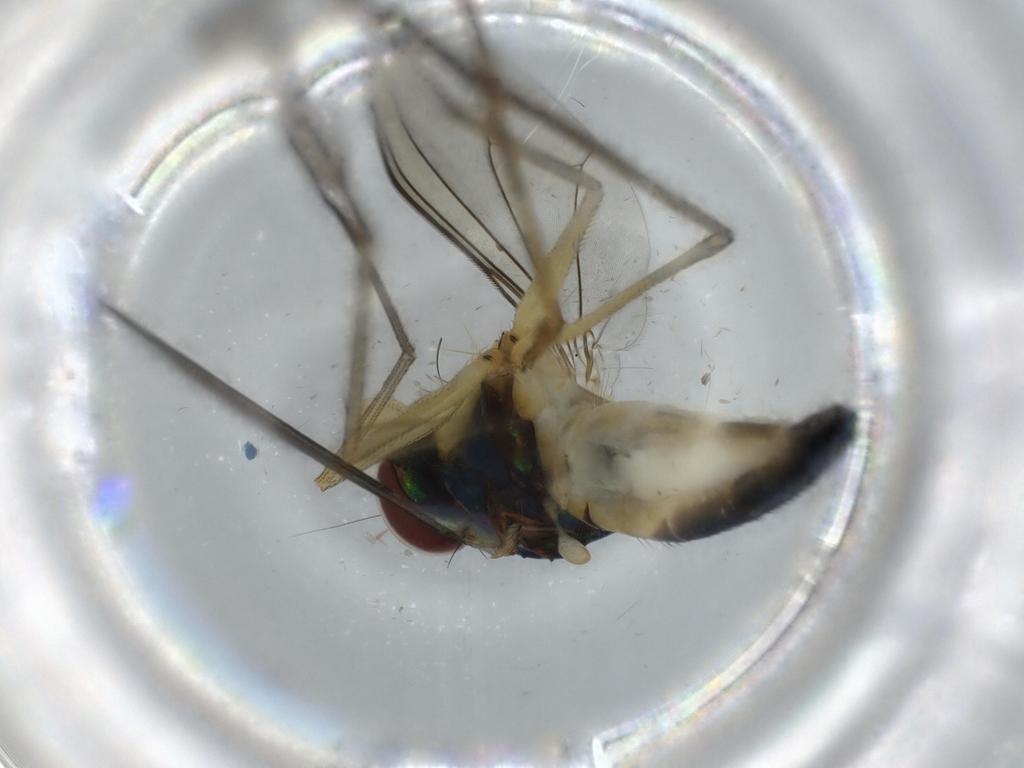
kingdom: Animalia
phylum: Arthropoda
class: Insecta
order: Diptera
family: Dolichopodidae
